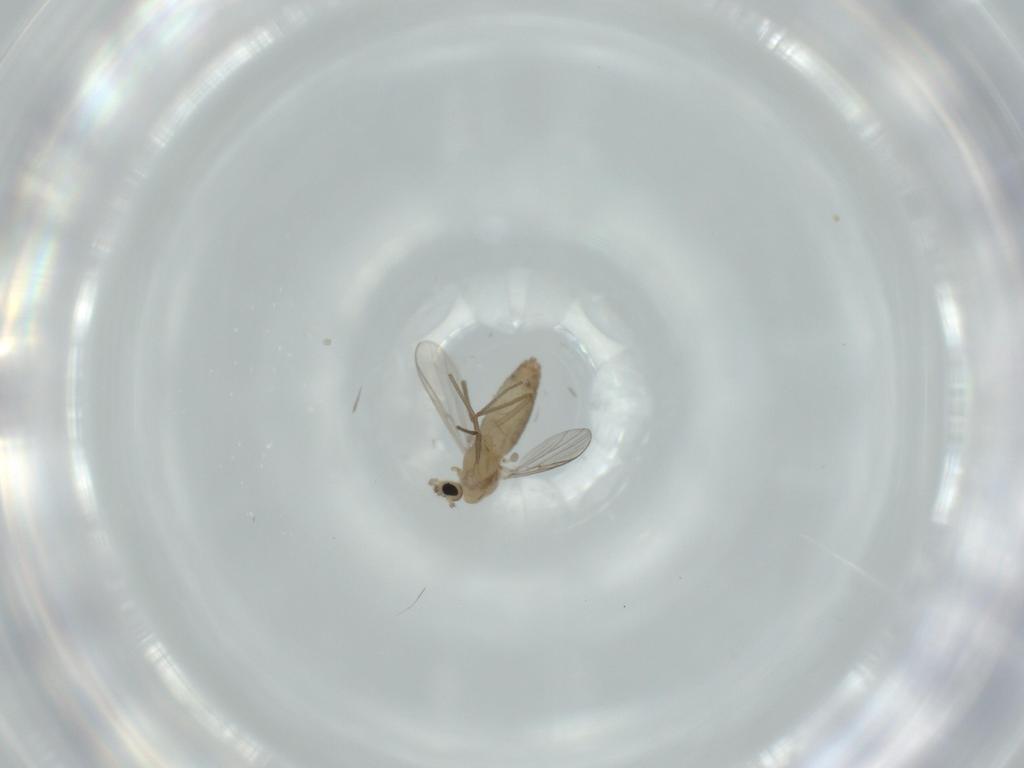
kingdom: Animalia
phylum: Arthropoda
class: Insecta
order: Diptera
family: Chironomidae
